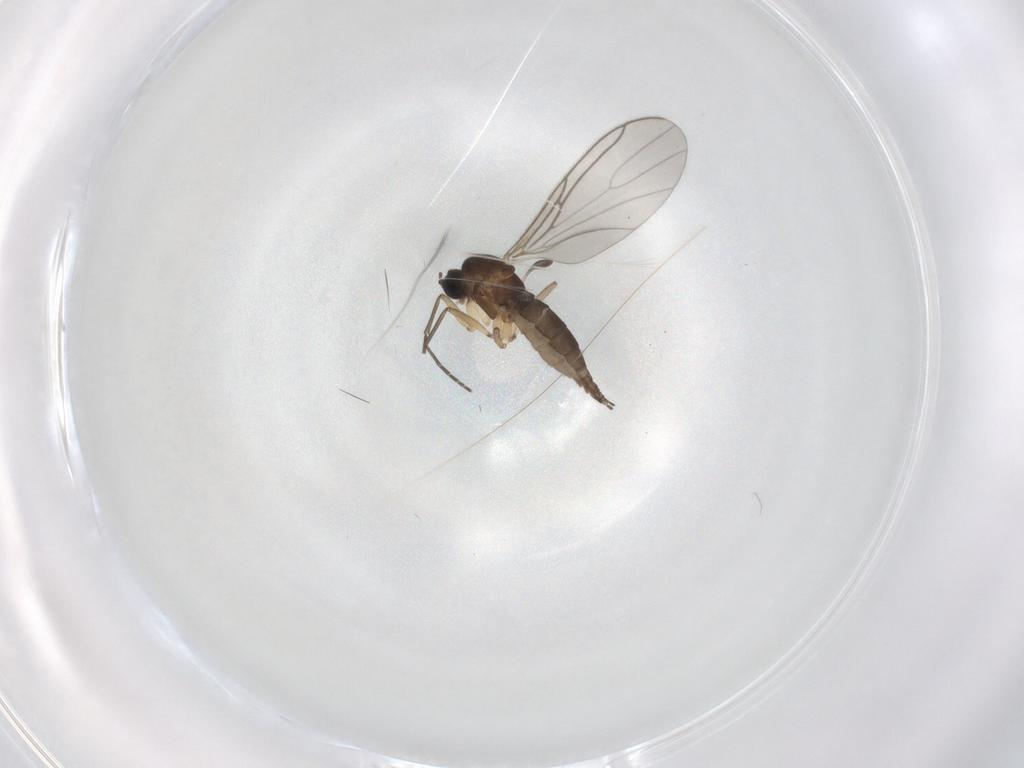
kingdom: Animalia
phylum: Arthropoda
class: Insecta
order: Diptera
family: Sciaridae
